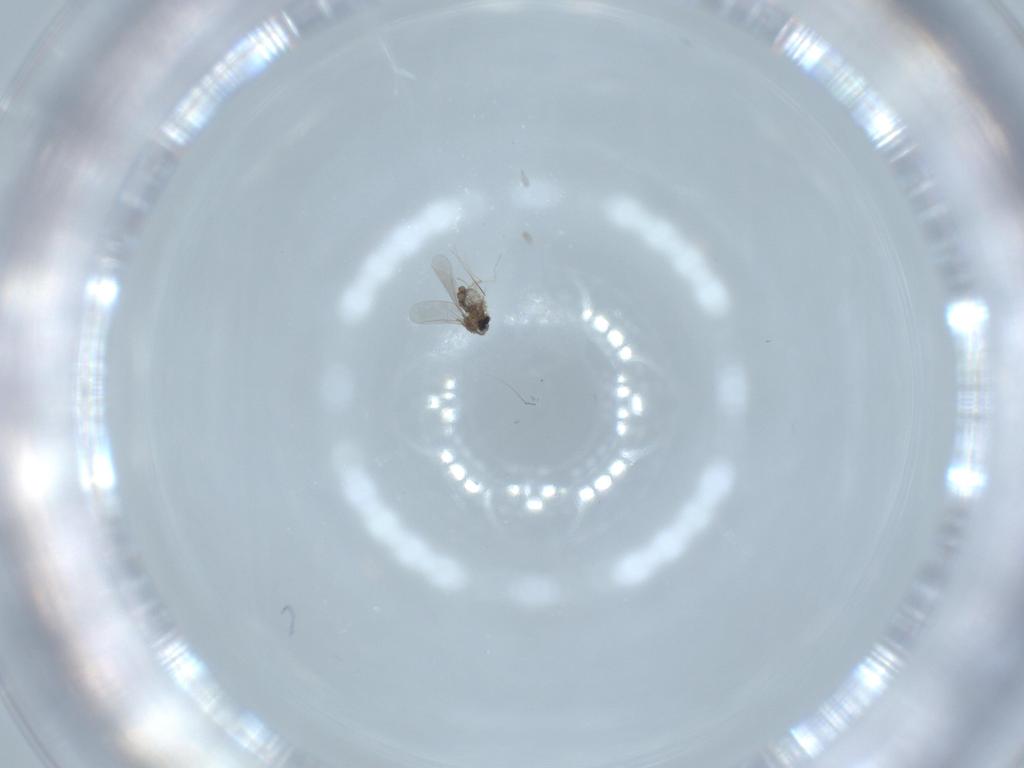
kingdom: Animalia
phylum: Arthropoda
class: Insecta
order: Diptera
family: Cecidomyiidae
